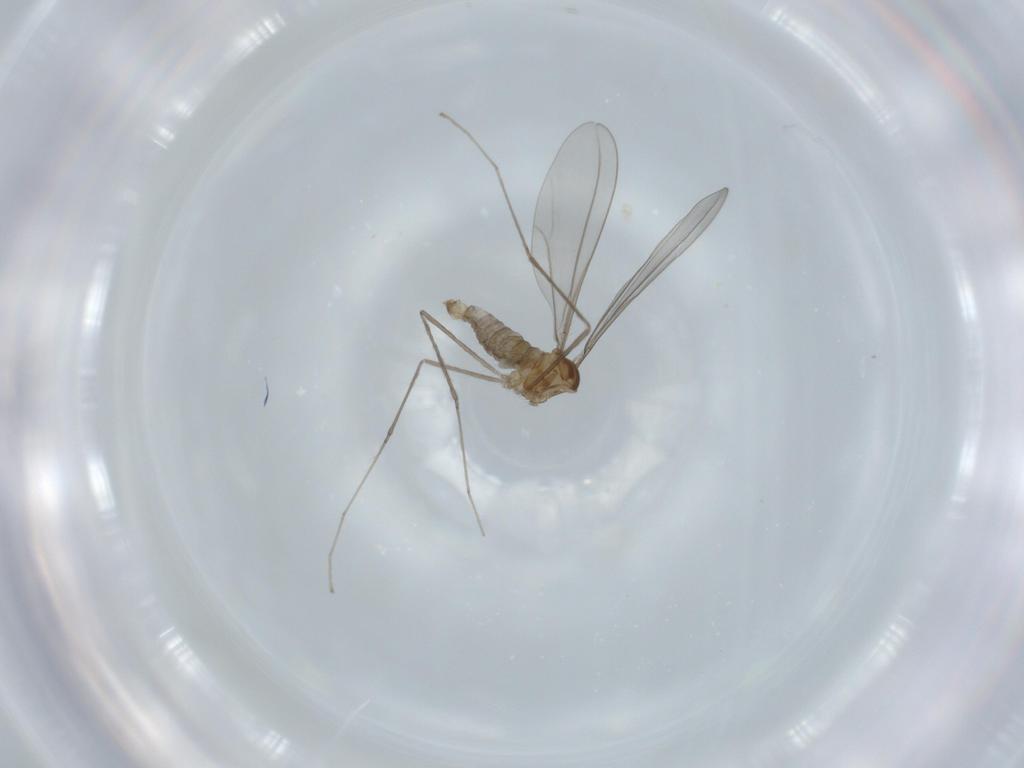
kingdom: Animalia
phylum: Arthropoda
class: Insecta
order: Diptera
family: Cecidomyiidae
